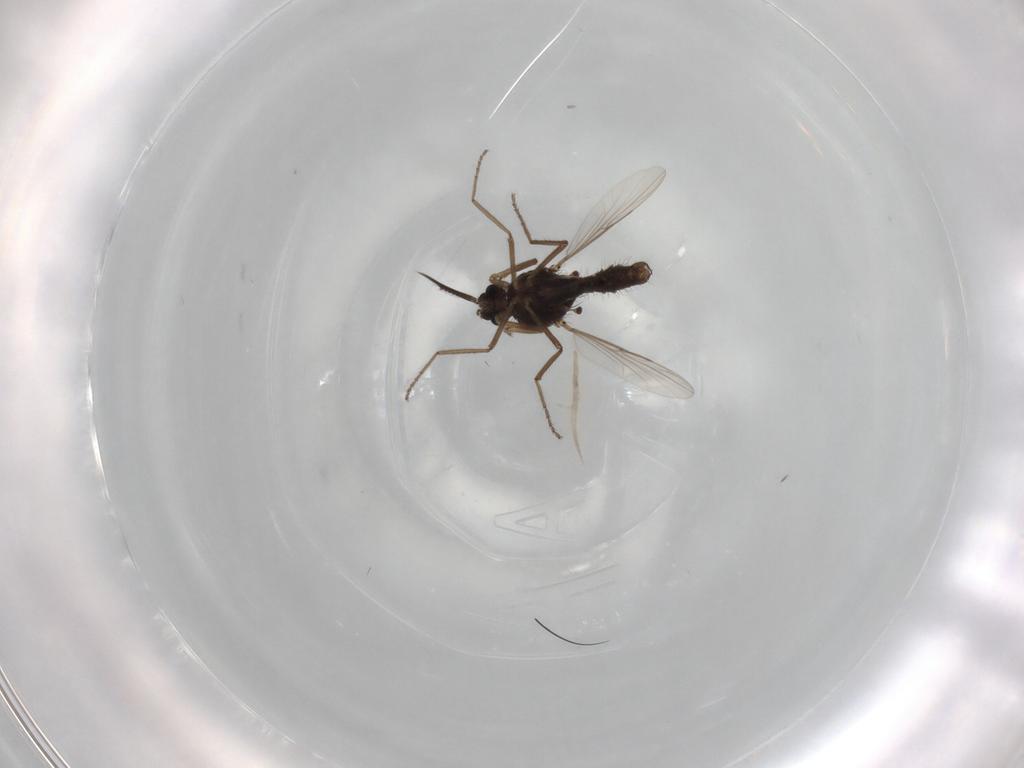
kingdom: Animalia
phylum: Arthropoda
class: Insecta
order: Diptera
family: Ceratopogonidae
